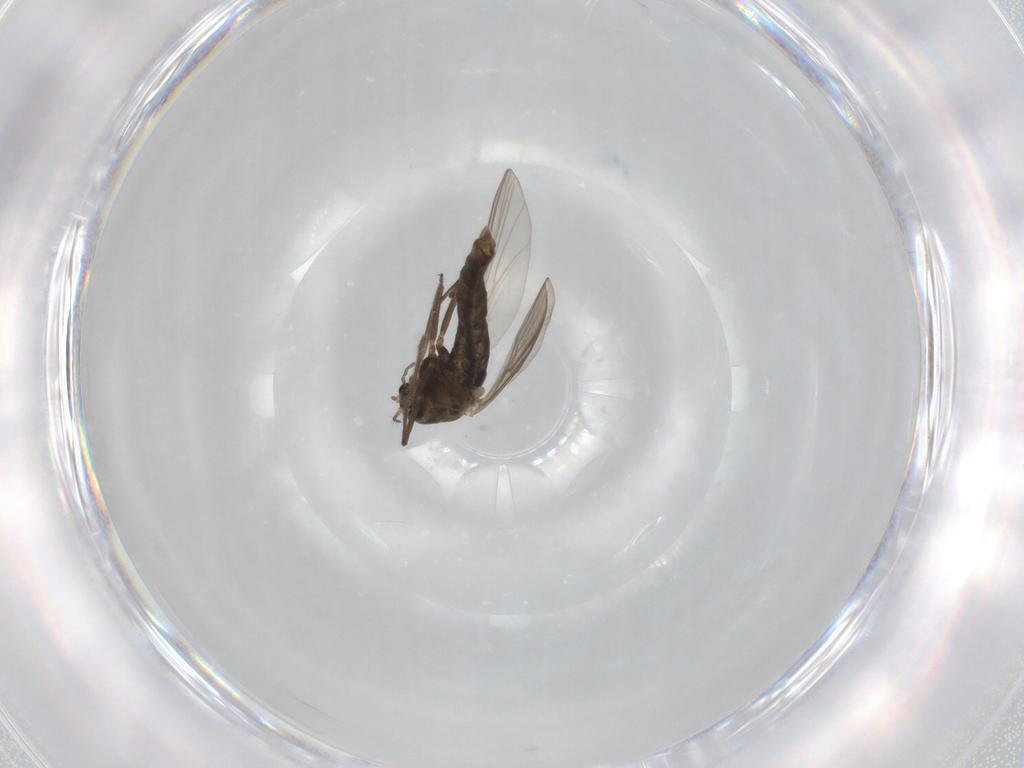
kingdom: Animalia
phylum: Arthropoda
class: Insecta
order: Diptera
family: Chironomidae
